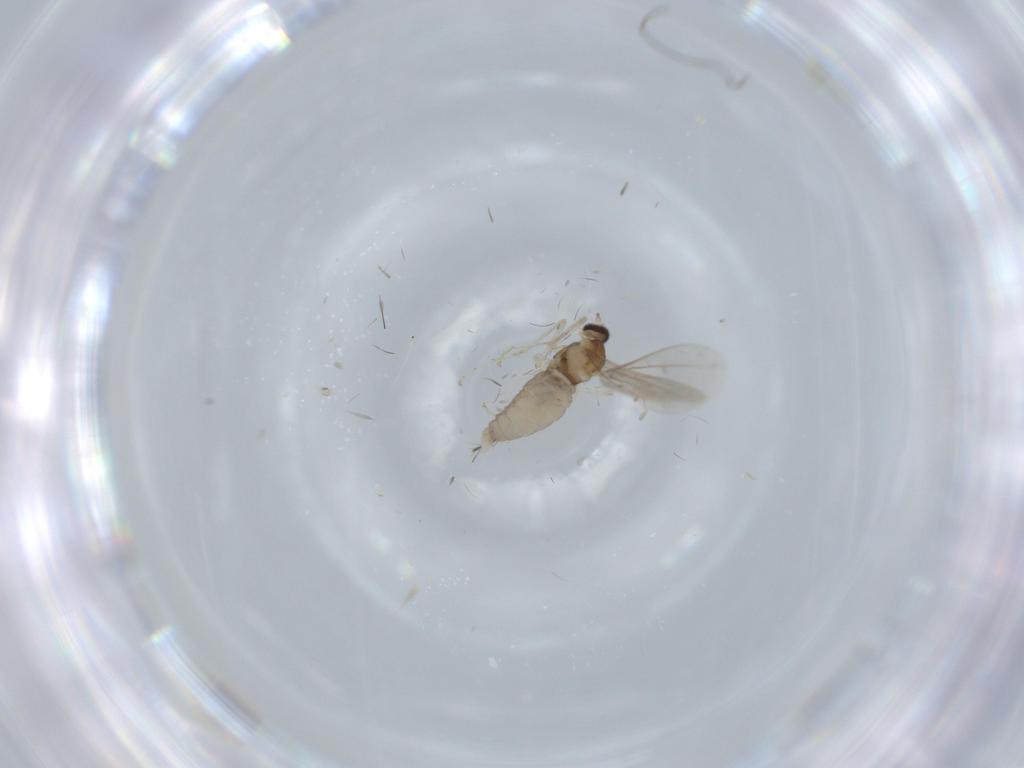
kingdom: Animalia
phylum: Arthropoda
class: Insecta
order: Diptera
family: Cecidomyiidae
